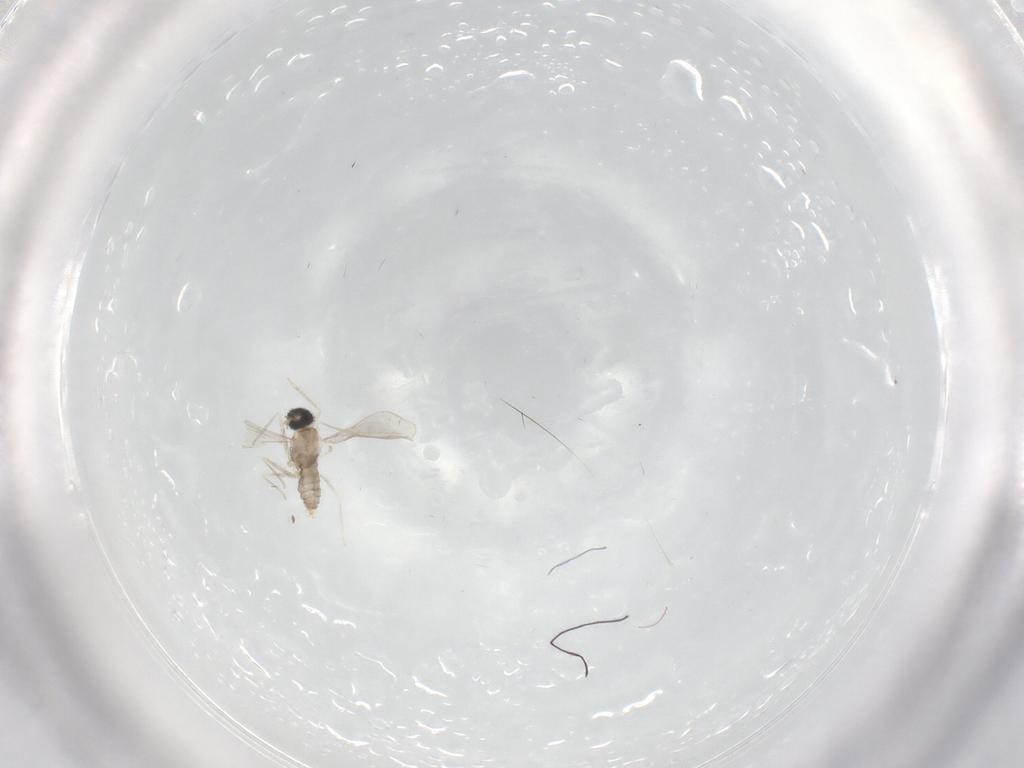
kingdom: Animalia
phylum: Arthropoda
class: Insecta
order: Diptera
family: Cecidomyiidae
